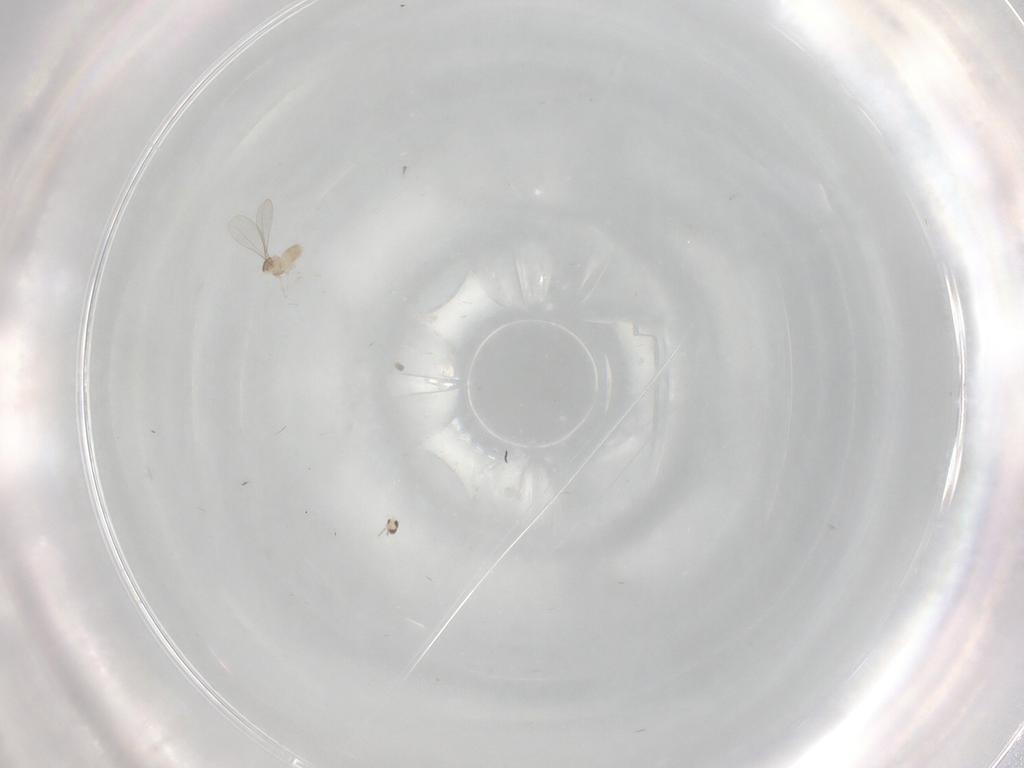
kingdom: Animalia
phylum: Arthropoda
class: Insecta
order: Diptera
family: Cecidomyiidae
